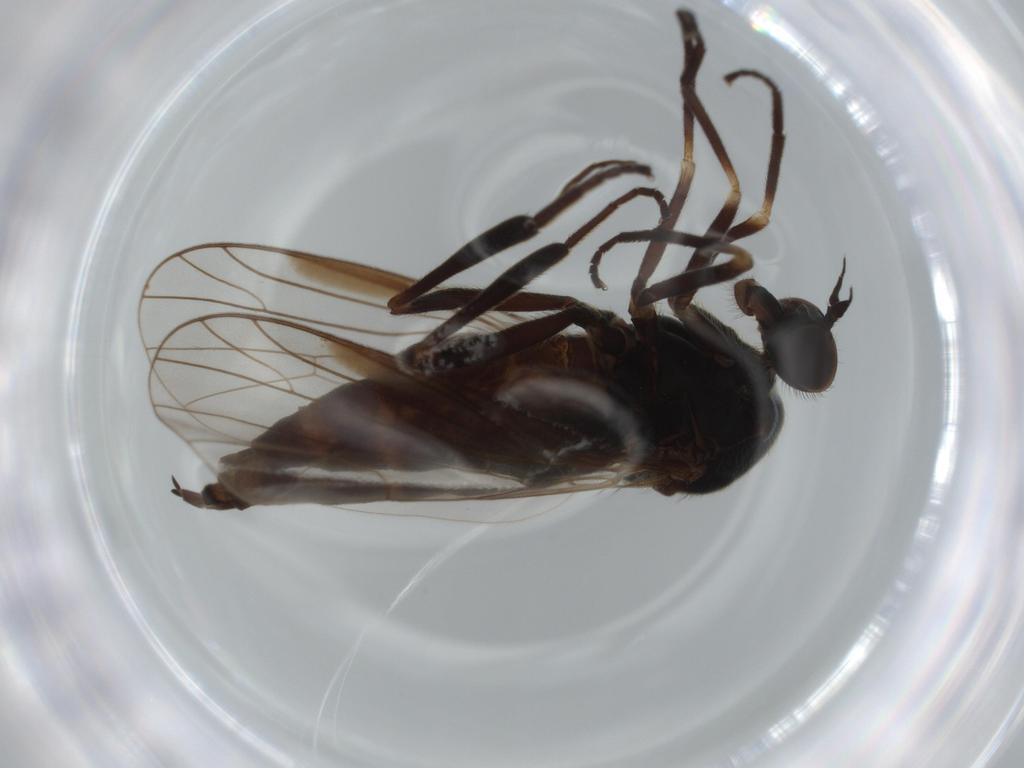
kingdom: Animalia
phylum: Arthropoda
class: Insecta
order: Diptera
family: Empididae
